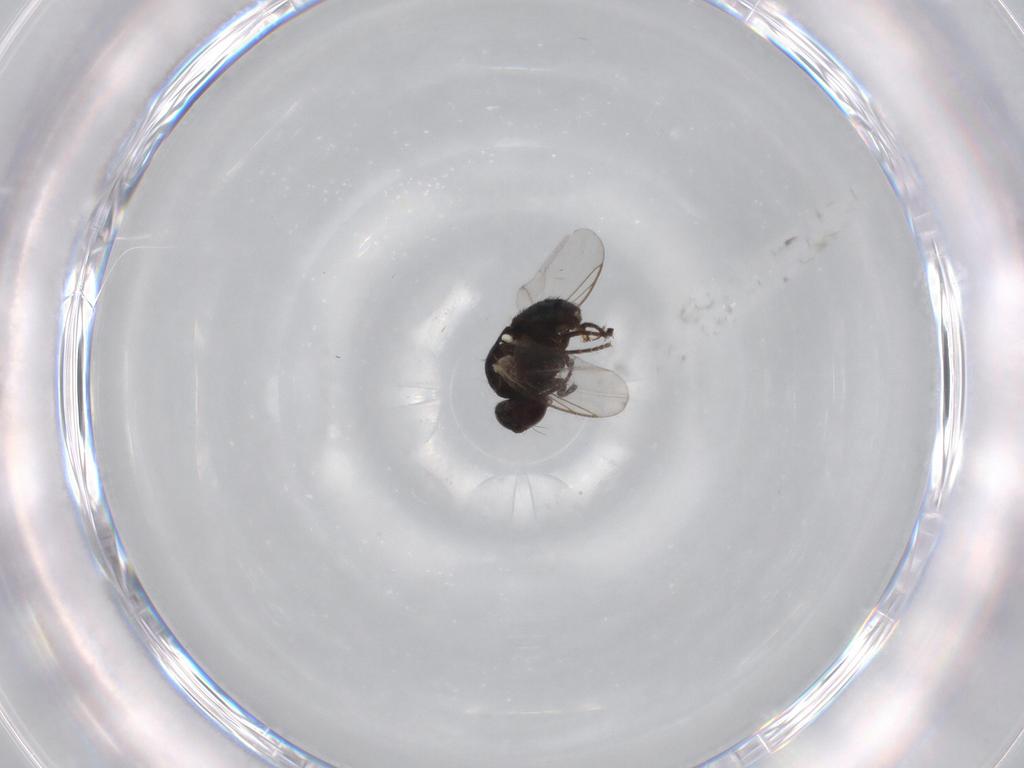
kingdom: Animalia
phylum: Arthropoda
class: Insecta
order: Diptera
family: Agromyzidae
